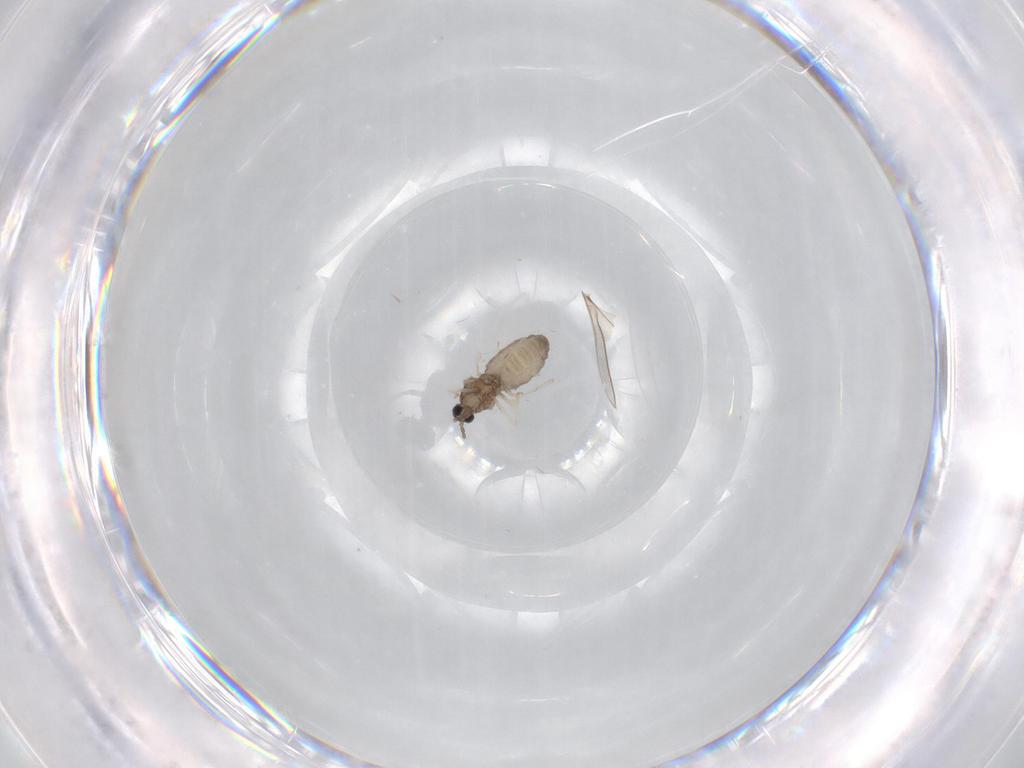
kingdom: Animalia
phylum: Arthropoda
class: Insecta
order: Diptera
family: Cecidomyiidae
